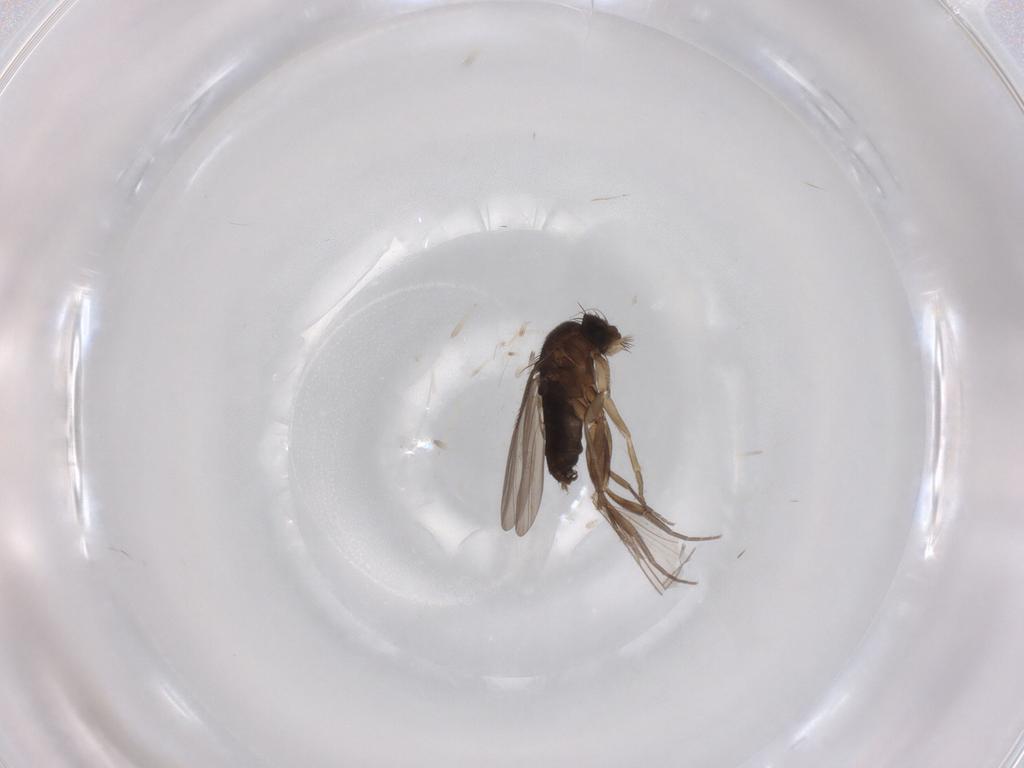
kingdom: Animalia
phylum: Arthropoda
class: Insecta
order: Diptera
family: Phoridae
